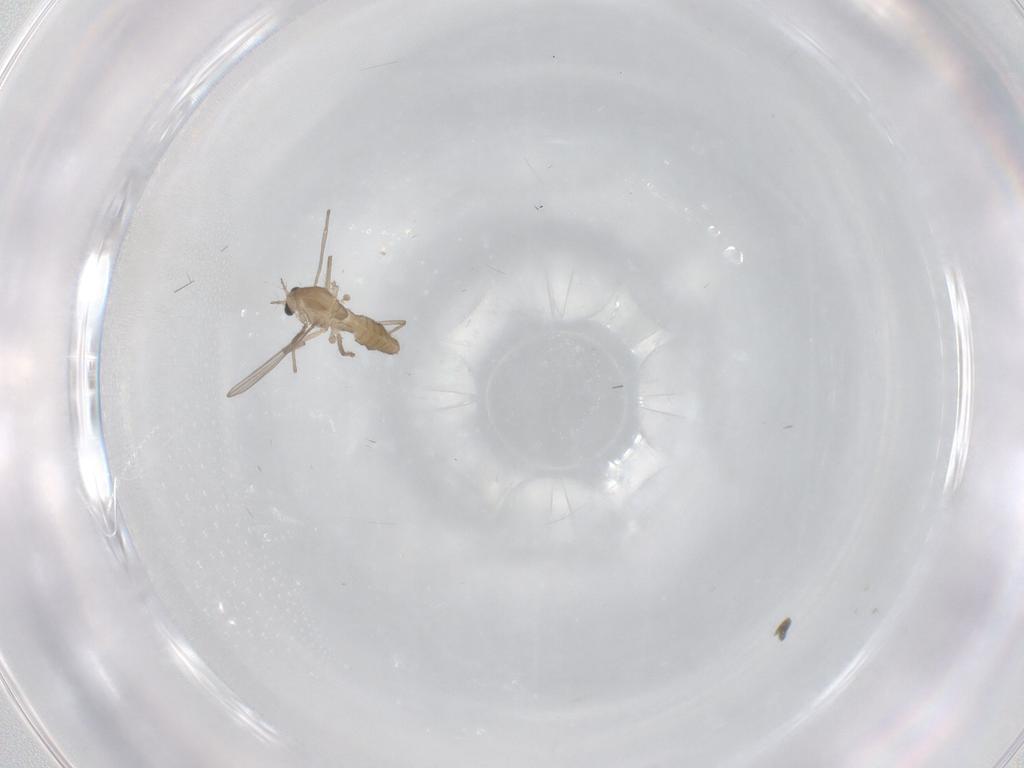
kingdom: Animalia
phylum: Arthropoda
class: Insecta
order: Diptera
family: Chironomidae
